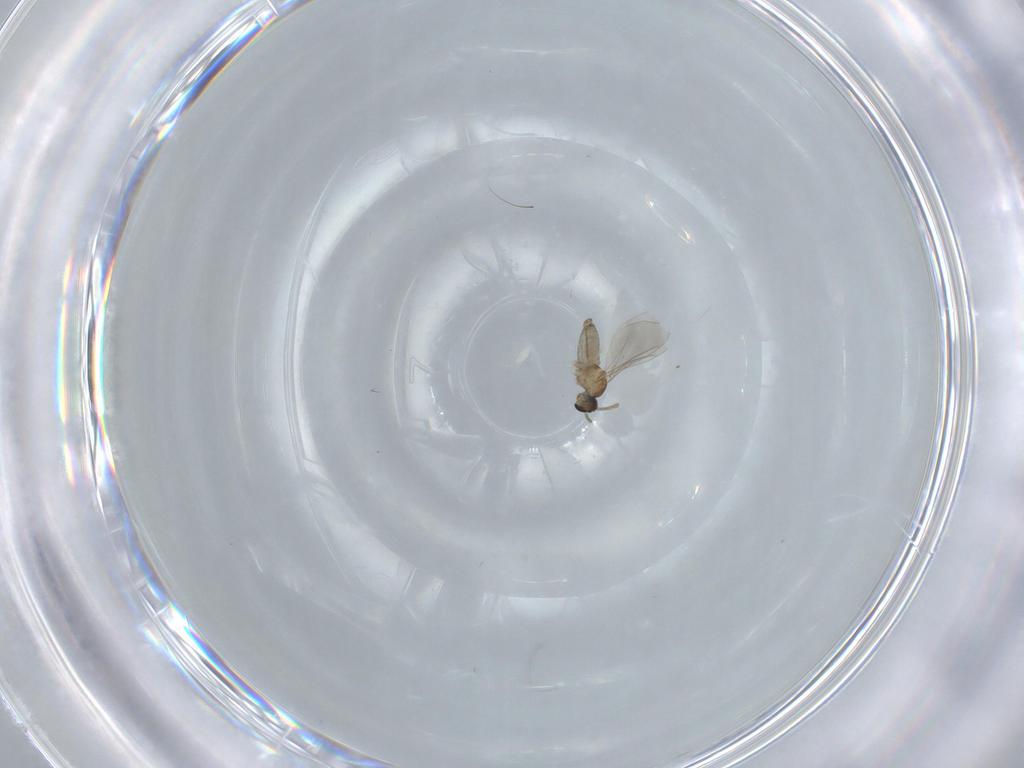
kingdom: Animalia
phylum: Arthropoda
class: Insecta
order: Diptera
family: Cecidomyiidae
